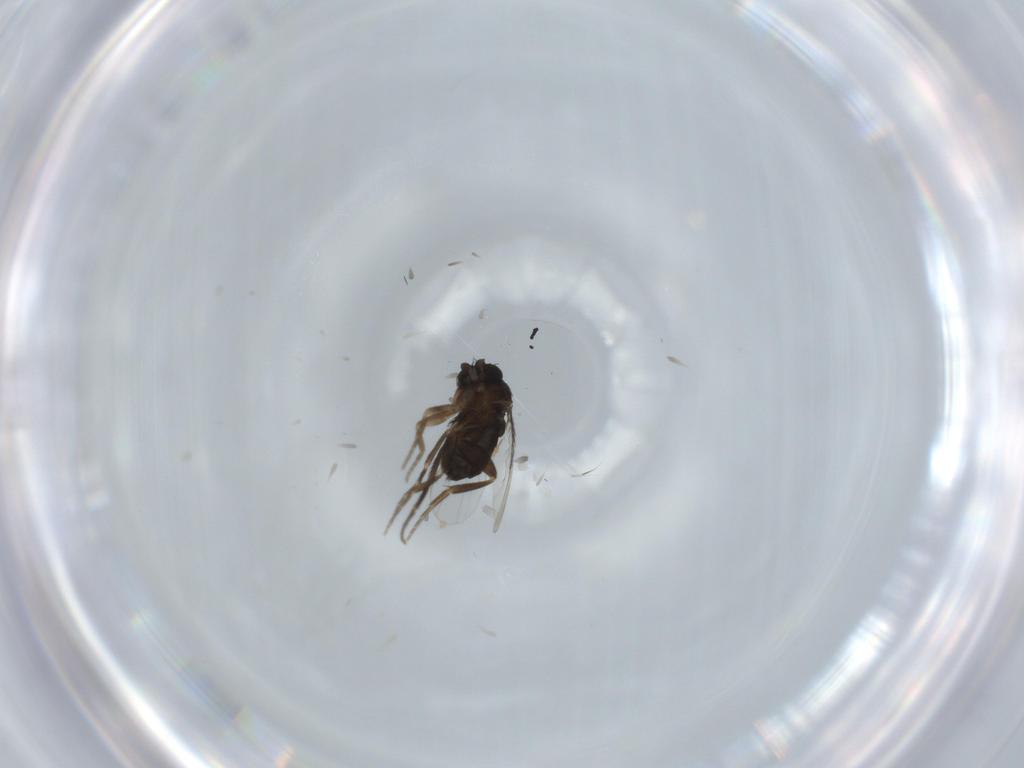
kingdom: Animalia
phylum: Arthropoda
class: Insecta
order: Diptera
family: Phoridae
